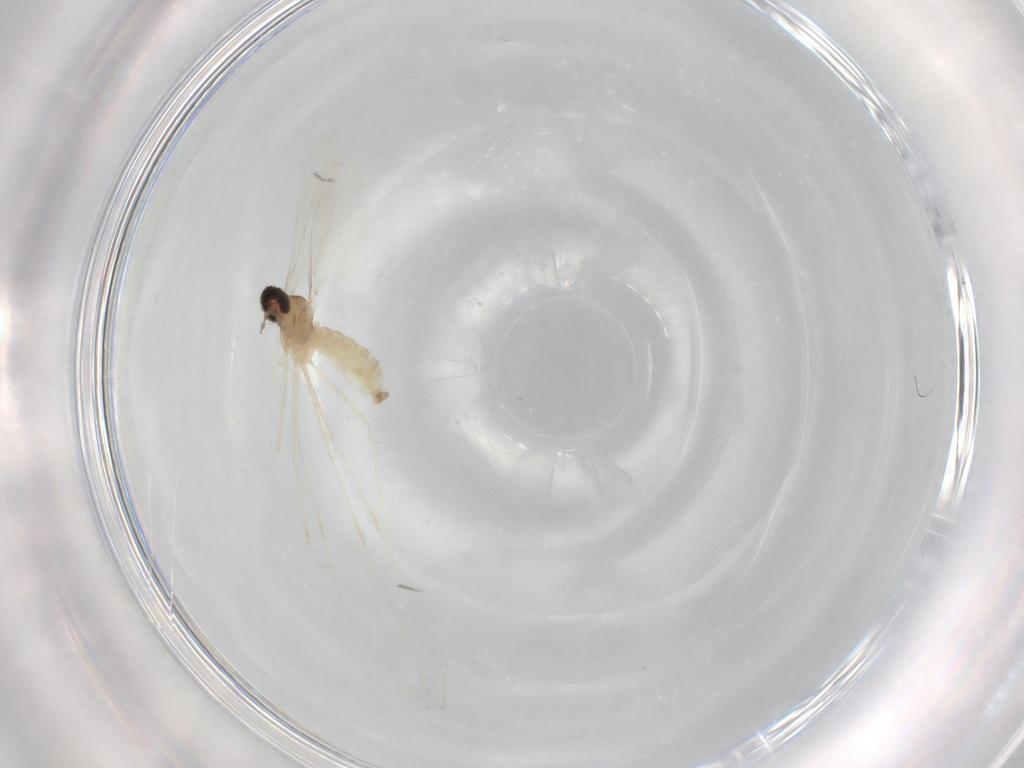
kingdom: Animalia
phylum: Arthropoda
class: Insecta
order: Diptera
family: Cecidomyiidae
